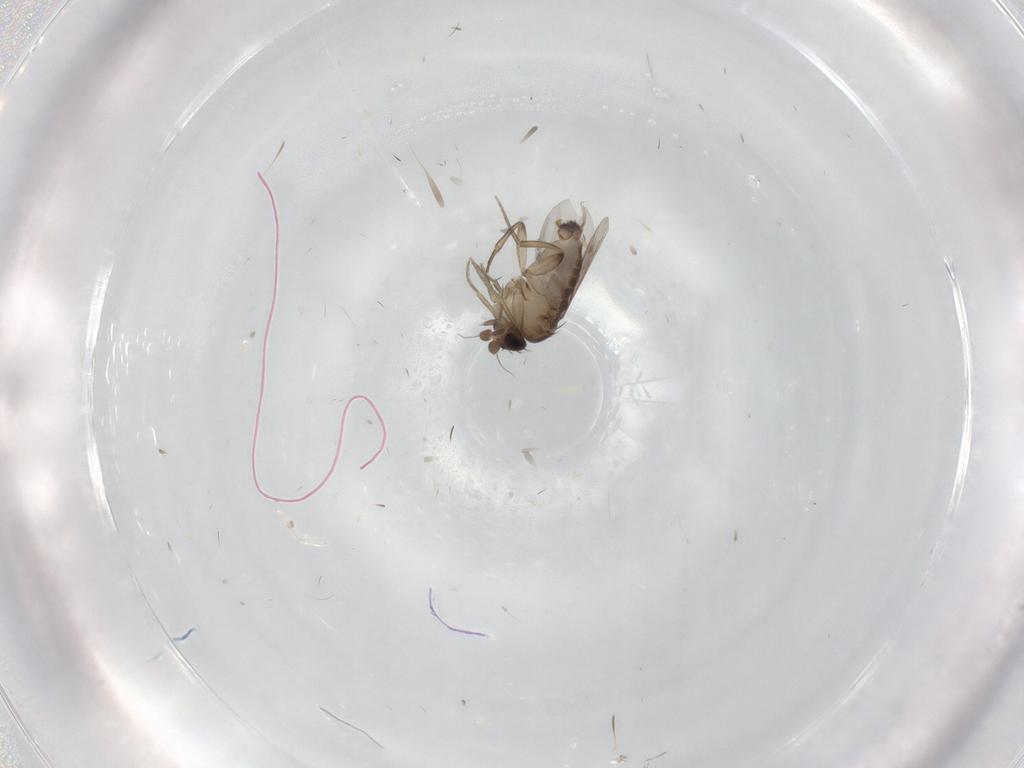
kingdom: Animalia
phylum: Arthropoda
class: Insecta
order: Diptera
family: Phoridae
